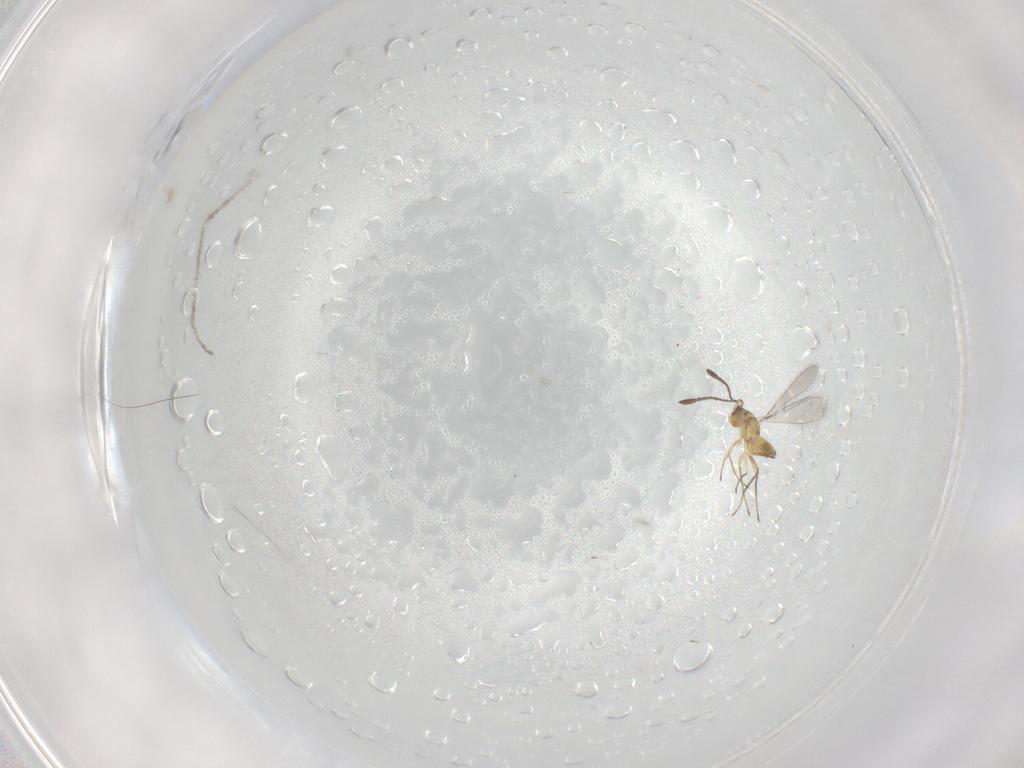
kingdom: Animalia
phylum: Arthropoda
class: Insecta
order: Hymenoptera
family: Mymaridae
